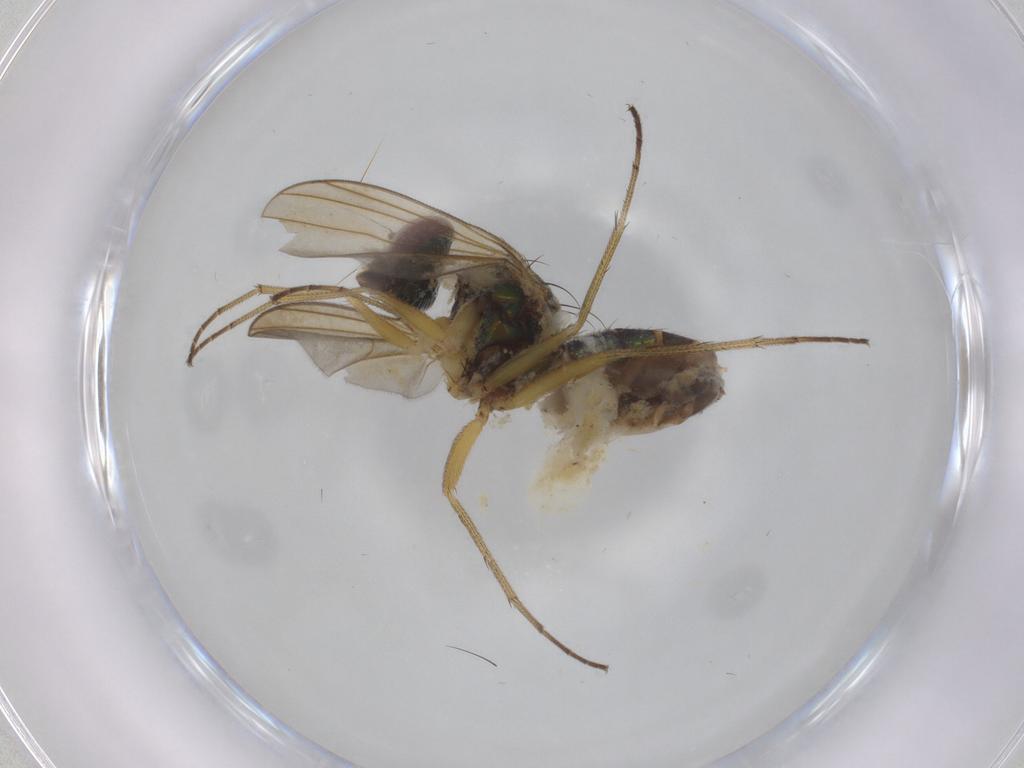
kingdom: Animalia
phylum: Arthropoda
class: Insecta
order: Diptera
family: Dolichopodidae
